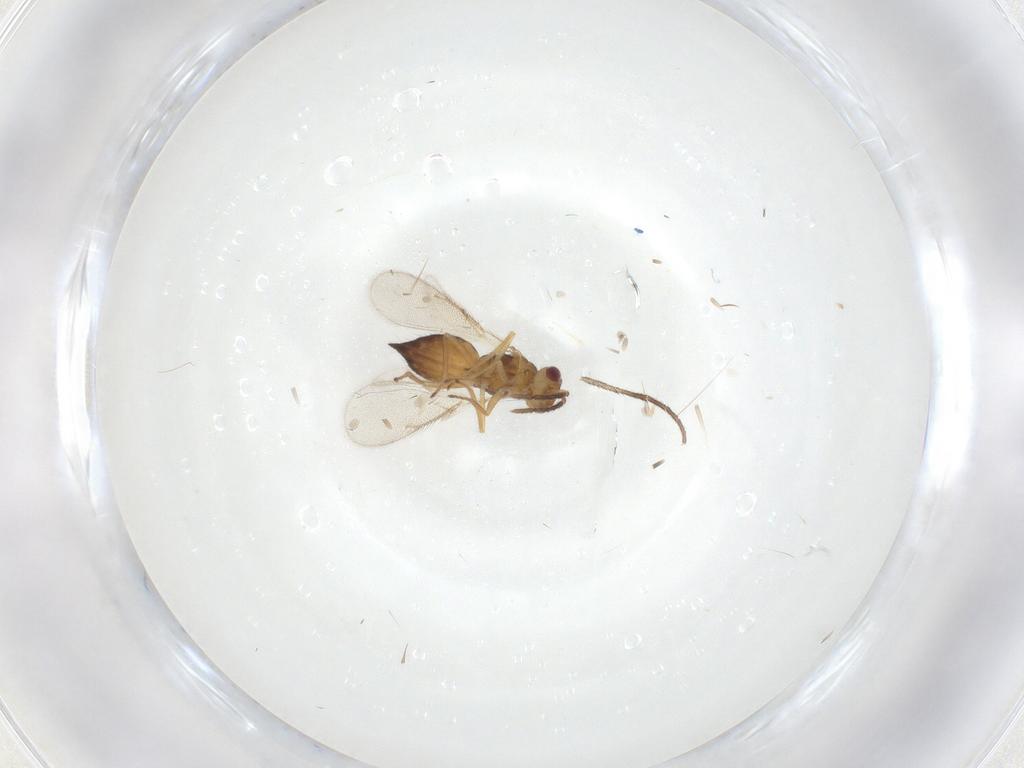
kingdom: Animalia
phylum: Arthropoda
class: Insecta
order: Hymenoptera
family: Eulophidae
